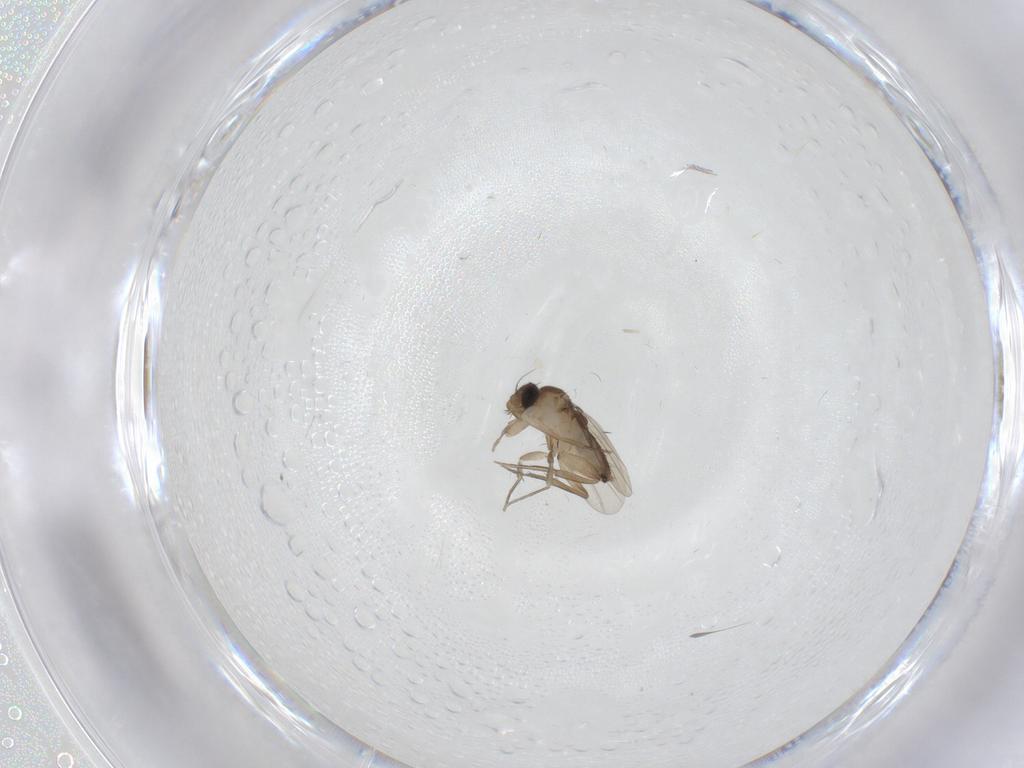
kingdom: Animalia
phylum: Arthropoda
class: Insecta
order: Diptera
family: Phoridae
